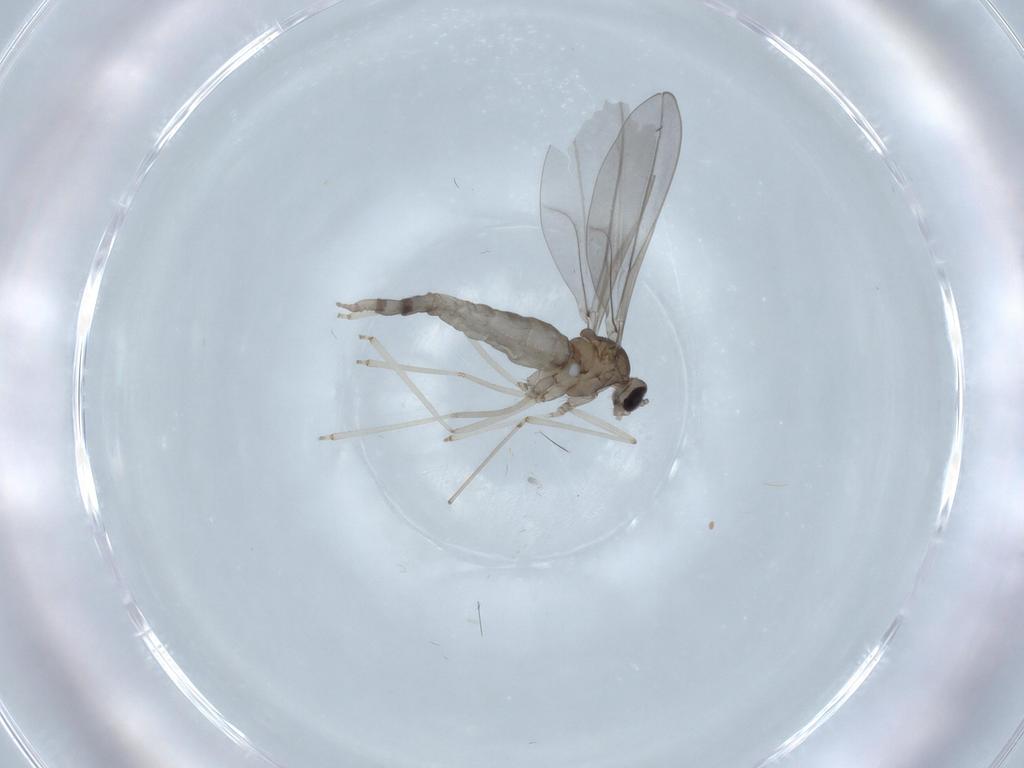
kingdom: Animalia
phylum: Arthropoda
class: Insecta
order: Diptera
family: Cecidomyiidae
